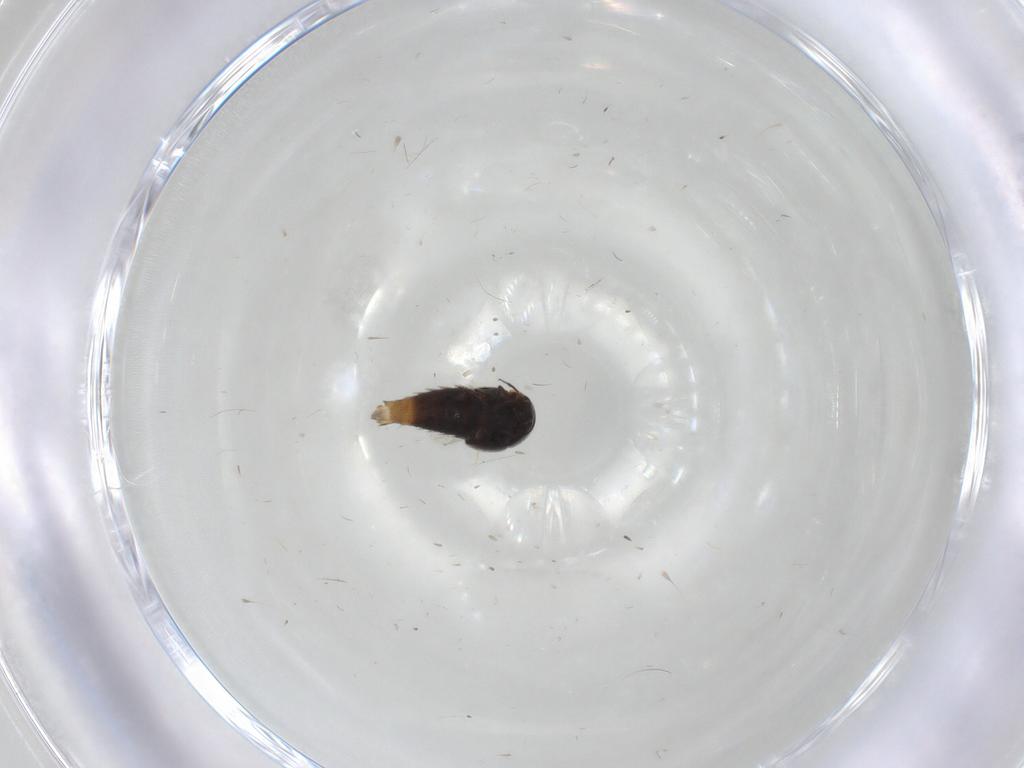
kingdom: Animalia
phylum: Arthropoda
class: Insecta
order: Coleoptera
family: Staphylinidae
